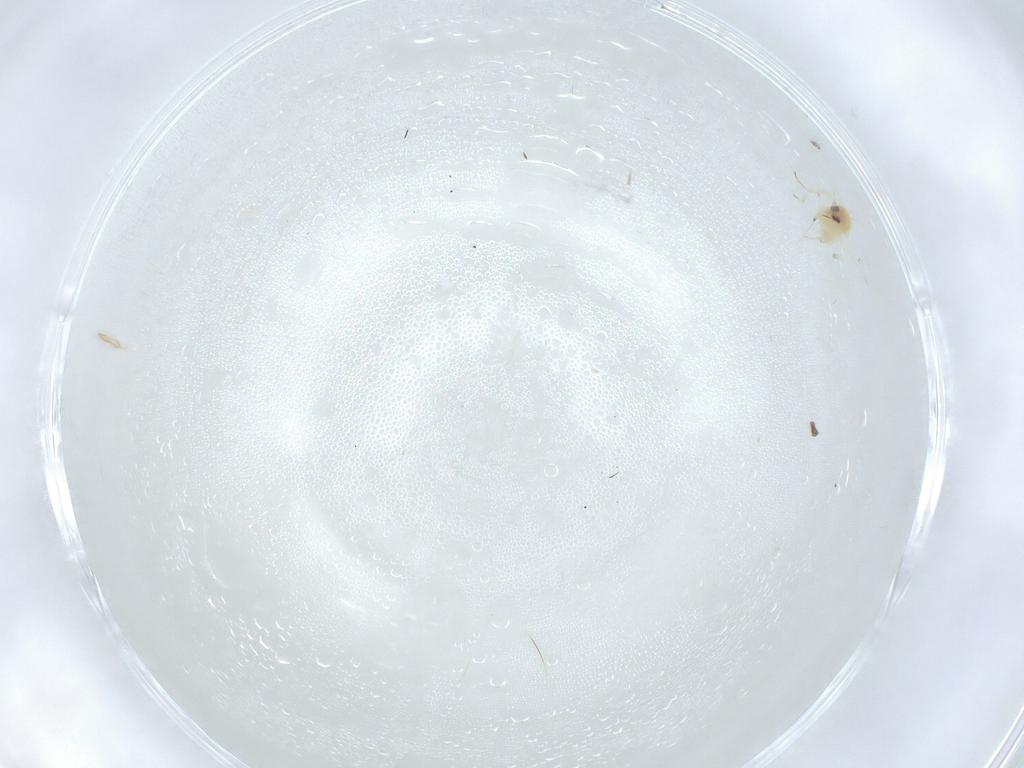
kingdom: Animalia
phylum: Arthropoda
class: Insecta
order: Hemiptera
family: Aleyrodidae
